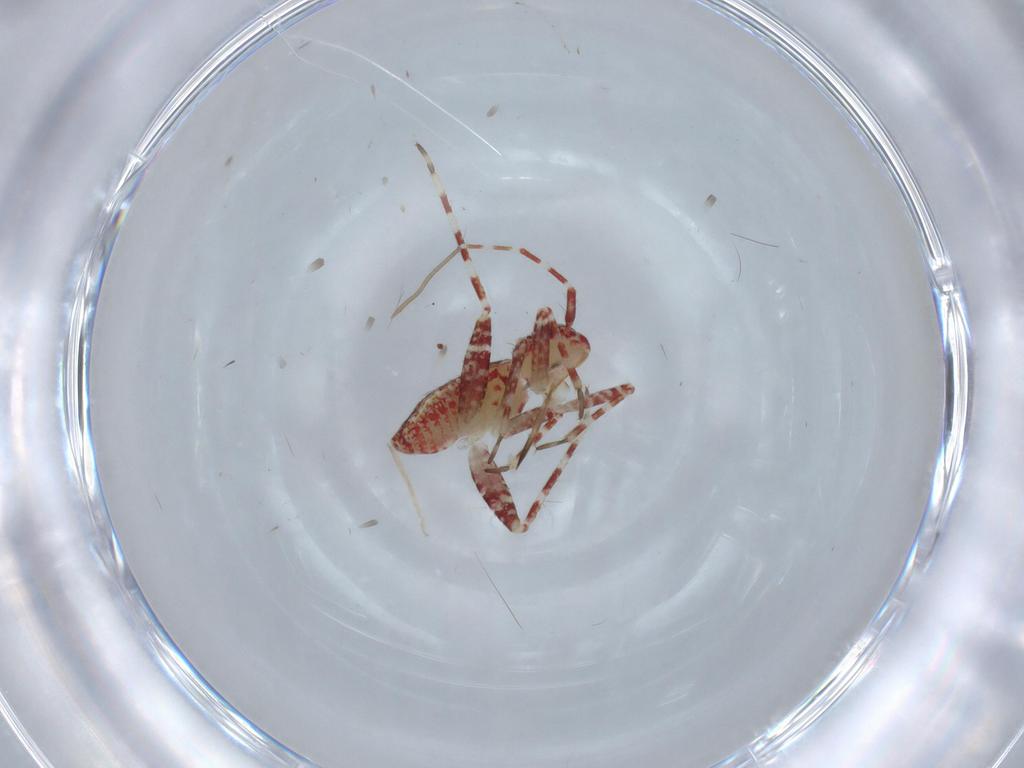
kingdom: Animalia
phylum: Arthropoda
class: Insecta
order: Hemiptera
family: Miridae
